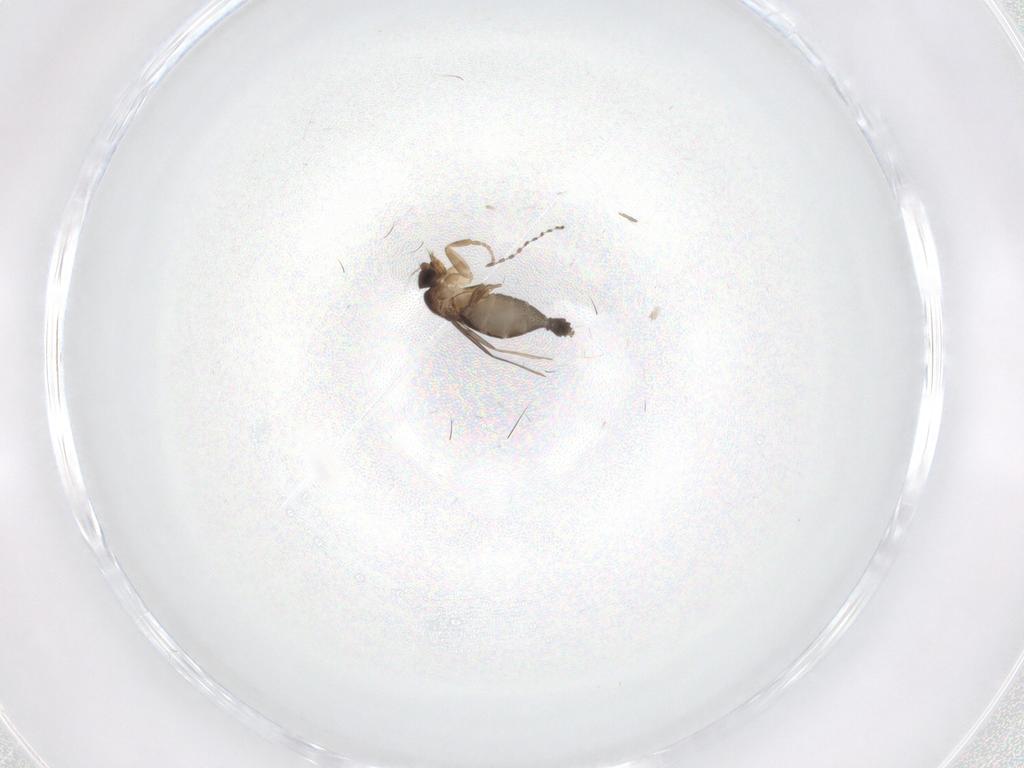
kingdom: Animalia
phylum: Arthropoda
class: Insecta
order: Diptera
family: Phoridae
